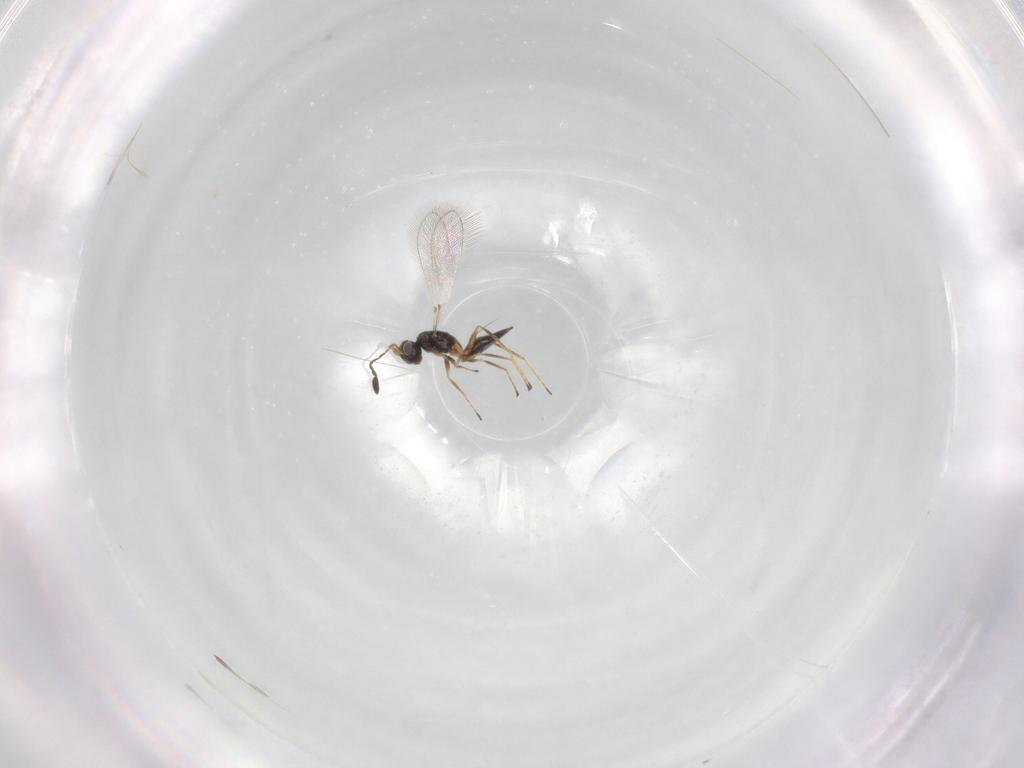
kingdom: Animalia
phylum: Arthropoda
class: Insecta
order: Hymenoptera
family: Mymaridae
